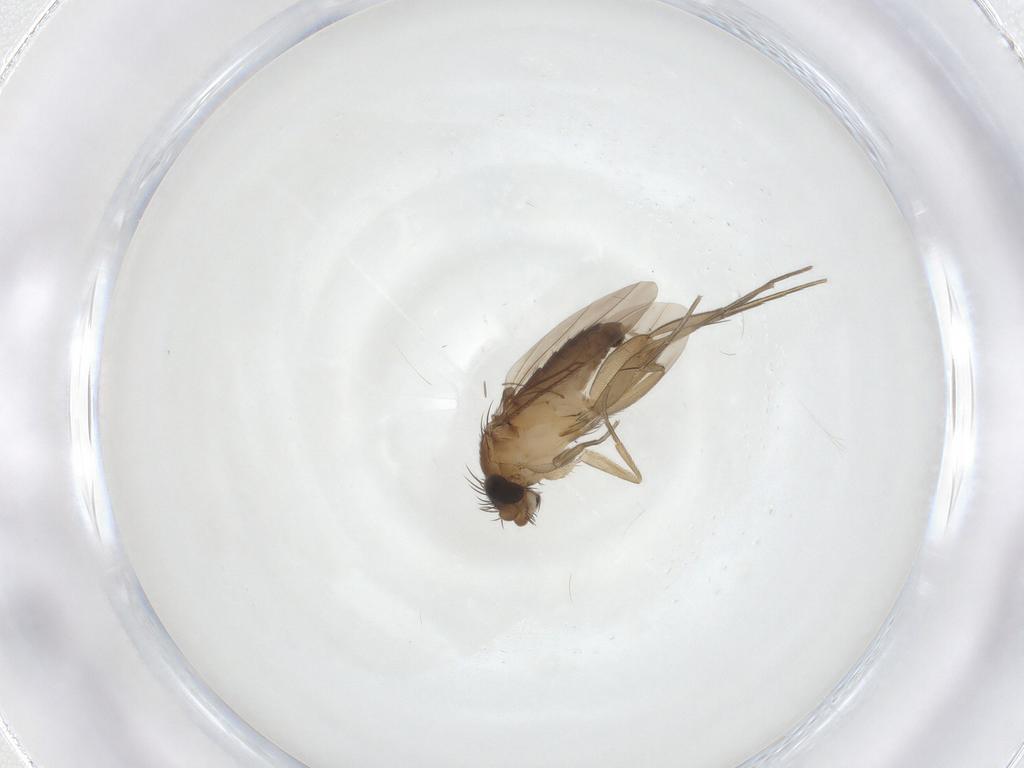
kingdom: Animalia
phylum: Arthropoda
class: Insecta
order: Diptera
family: Phoridae
